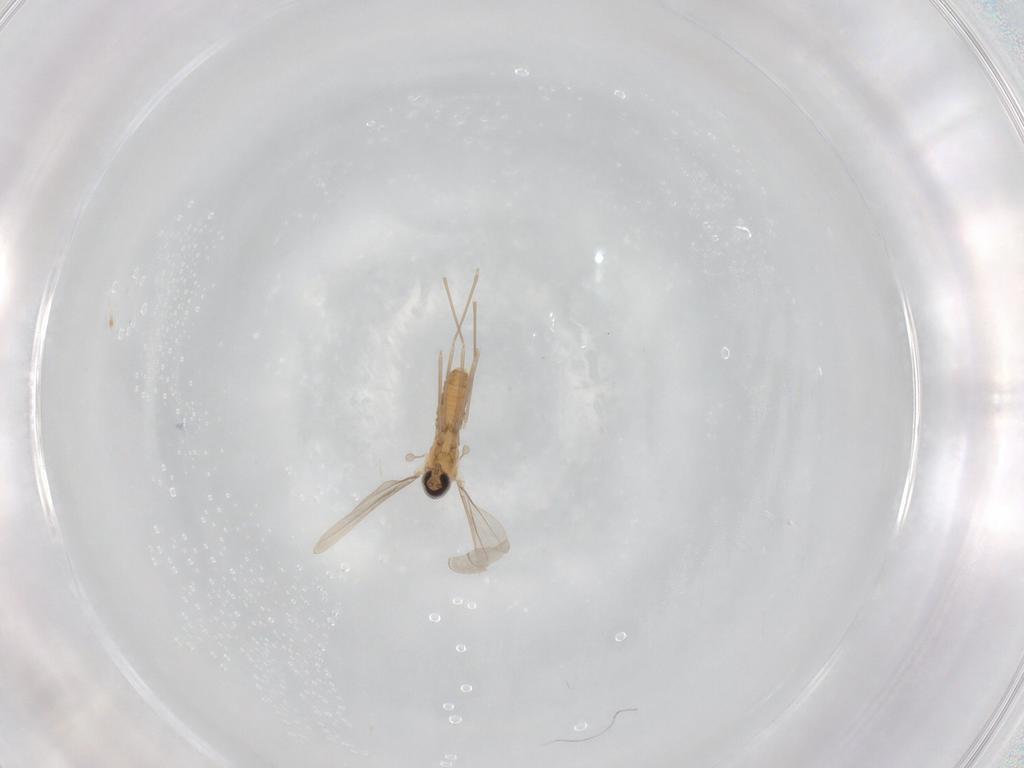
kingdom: Animalia
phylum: Arthropoda
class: Insecta
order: Diptera
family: Cecidomyiidae
